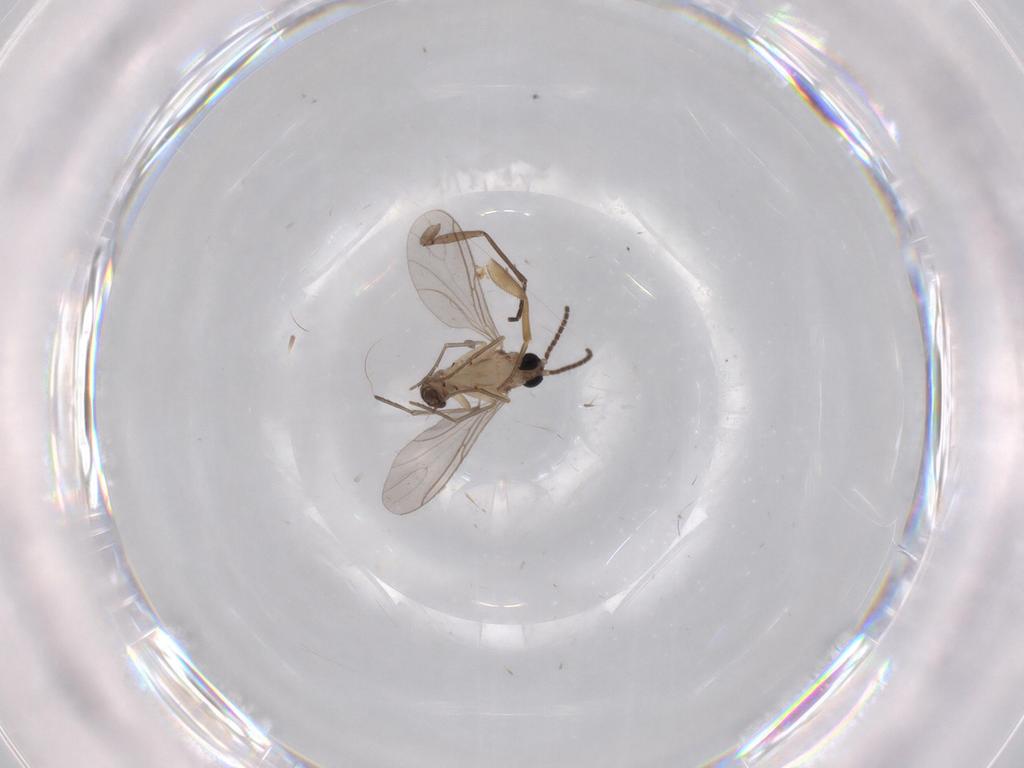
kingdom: Animalia
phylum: Arthropoda
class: Insecta
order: Diptera
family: Sciaridae
